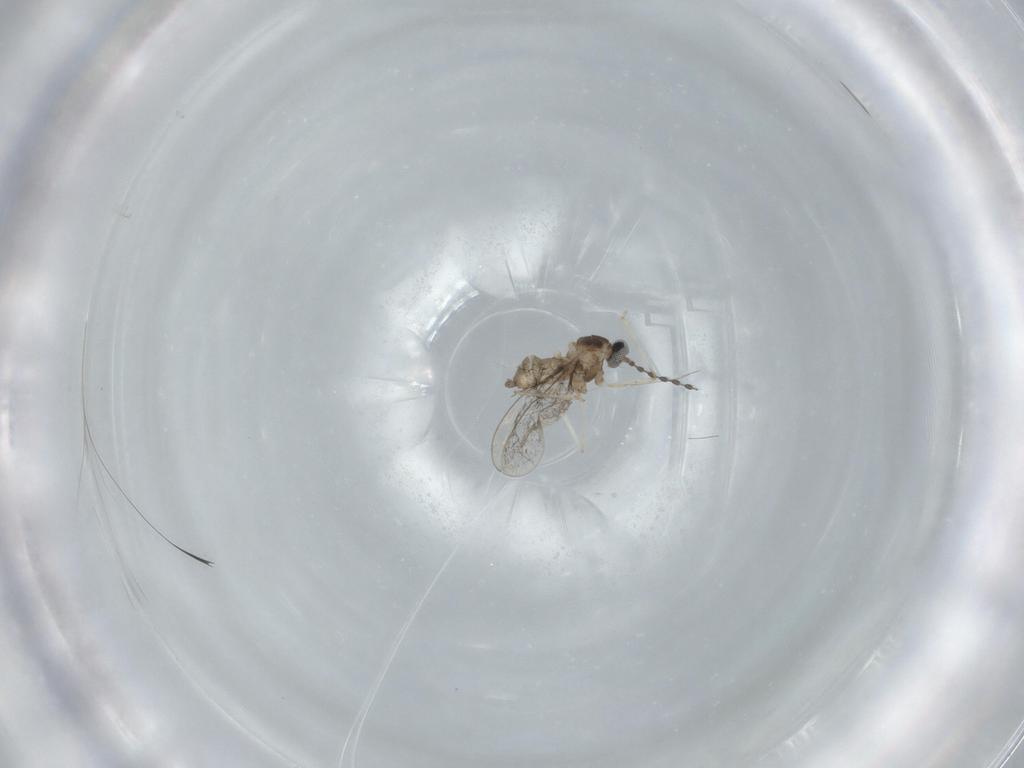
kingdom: Animalia
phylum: Arthropoda
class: Insecta
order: Diptera
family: Cecidomyiidae
